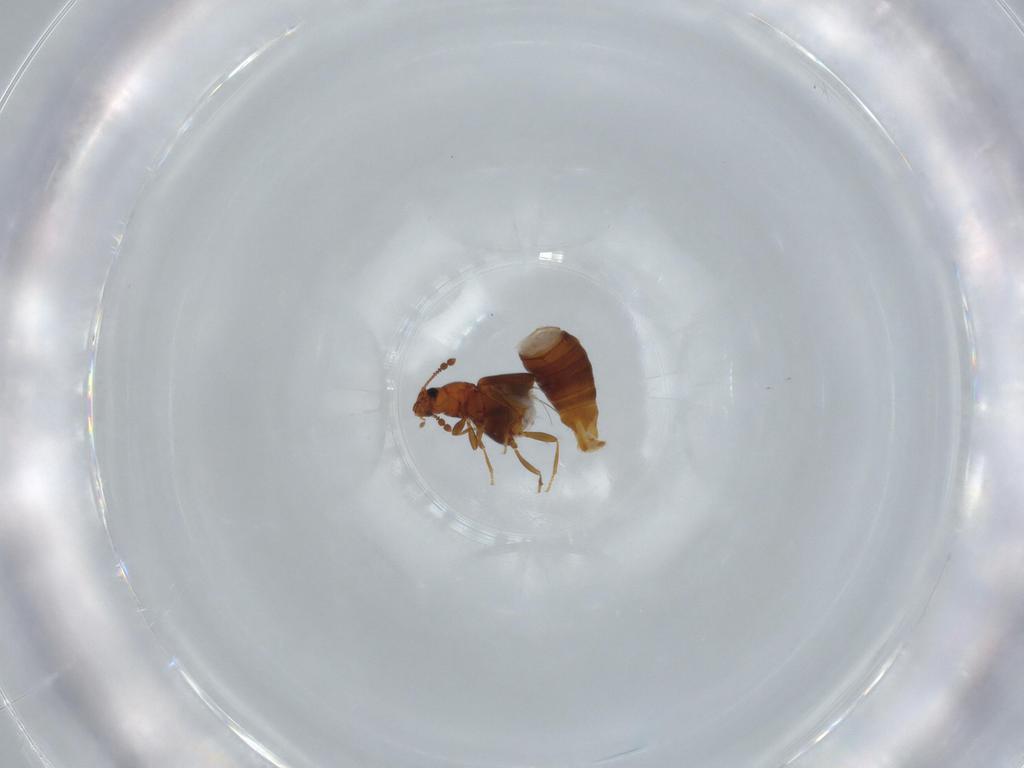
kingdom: Animalia
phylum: Arthropoda
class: Insecta
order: Coleoptera
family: Staphylinidae
